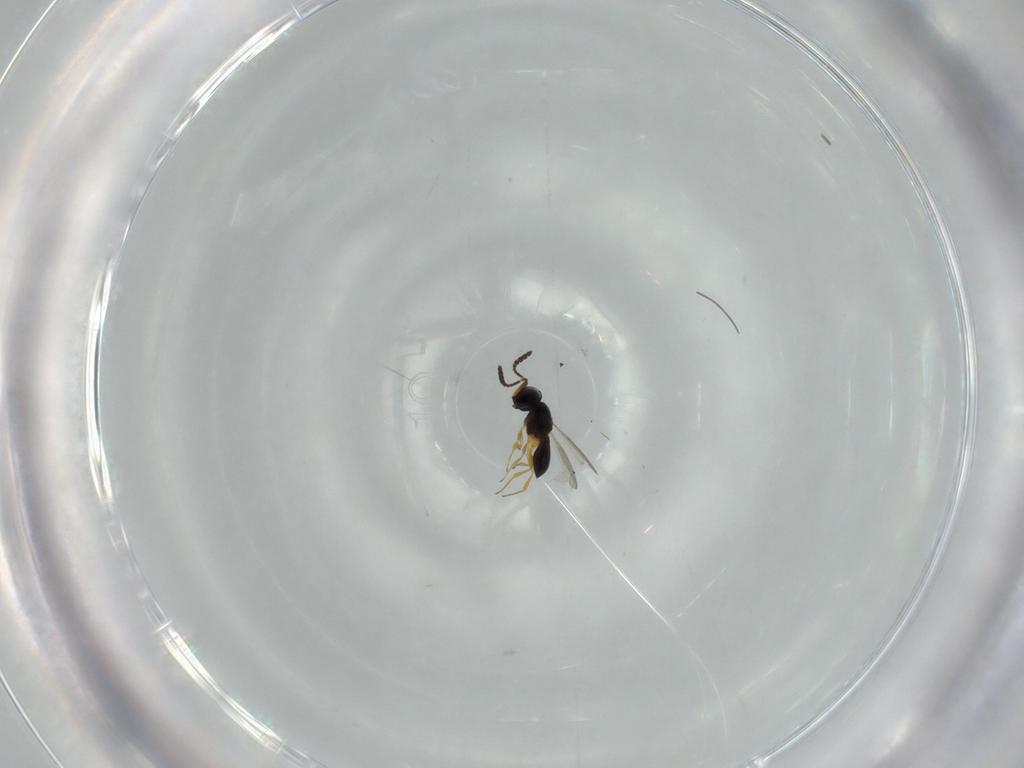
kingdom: Animalia
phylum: Arthropoda
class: Insecta
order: Hymenoptera
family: Scelionidae
